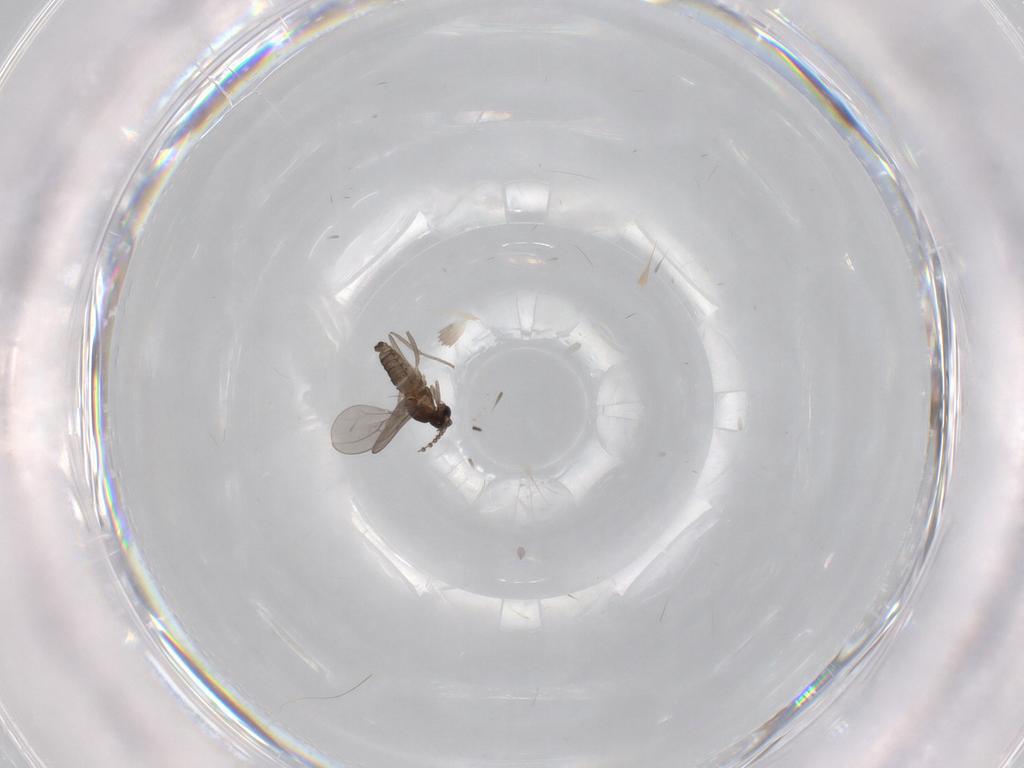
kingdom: Animalia
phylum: Arthropoda
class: Insecta
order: Diptera
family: Cecidomyiidae
